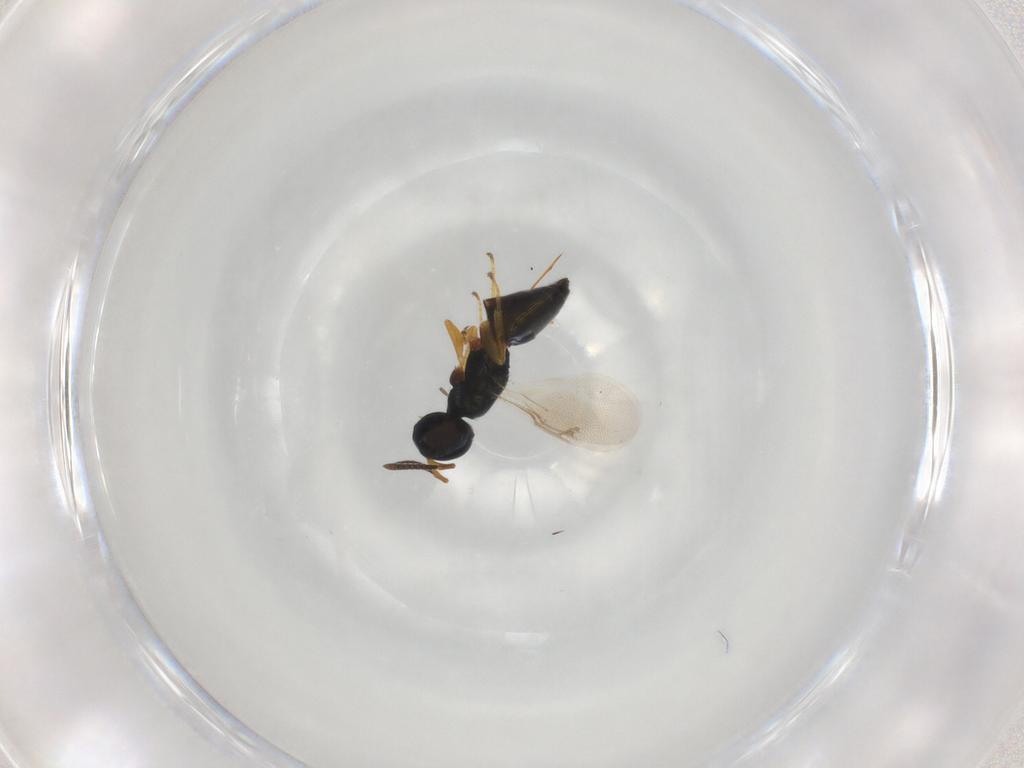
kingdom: Animalia
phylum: Arthropoda
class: Insecta
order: Hymenoptera
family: Pteromalidae
